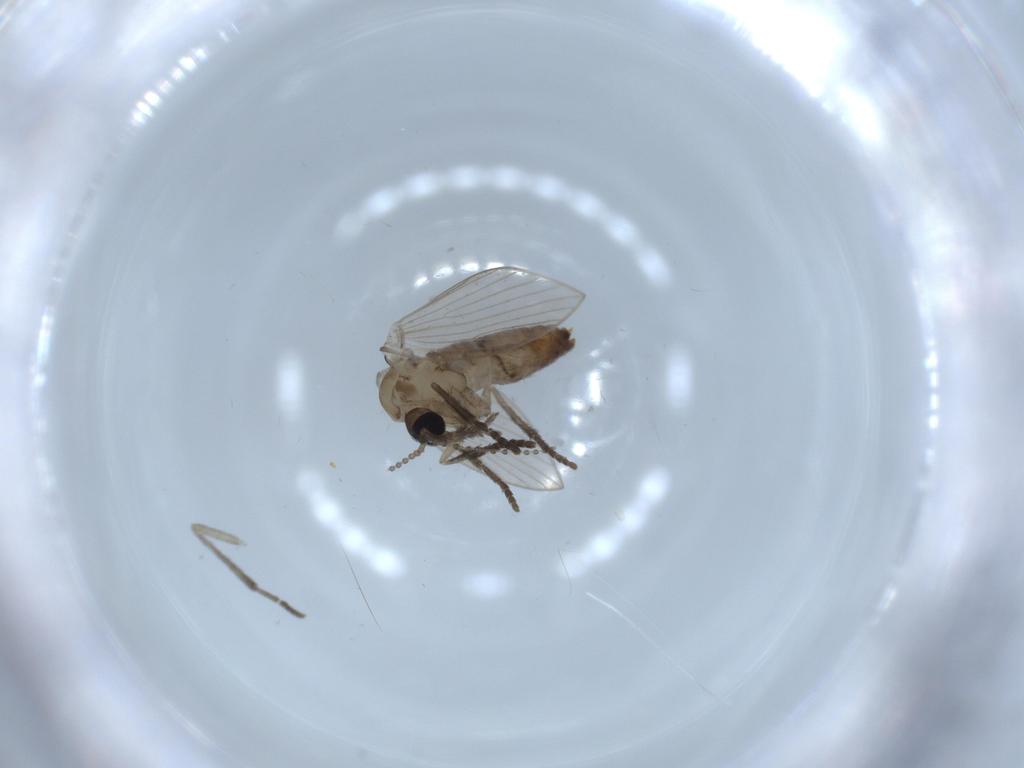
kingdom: Animalia
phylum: Arthropoda
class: Insecta
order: Diptera
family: Psychodidae
